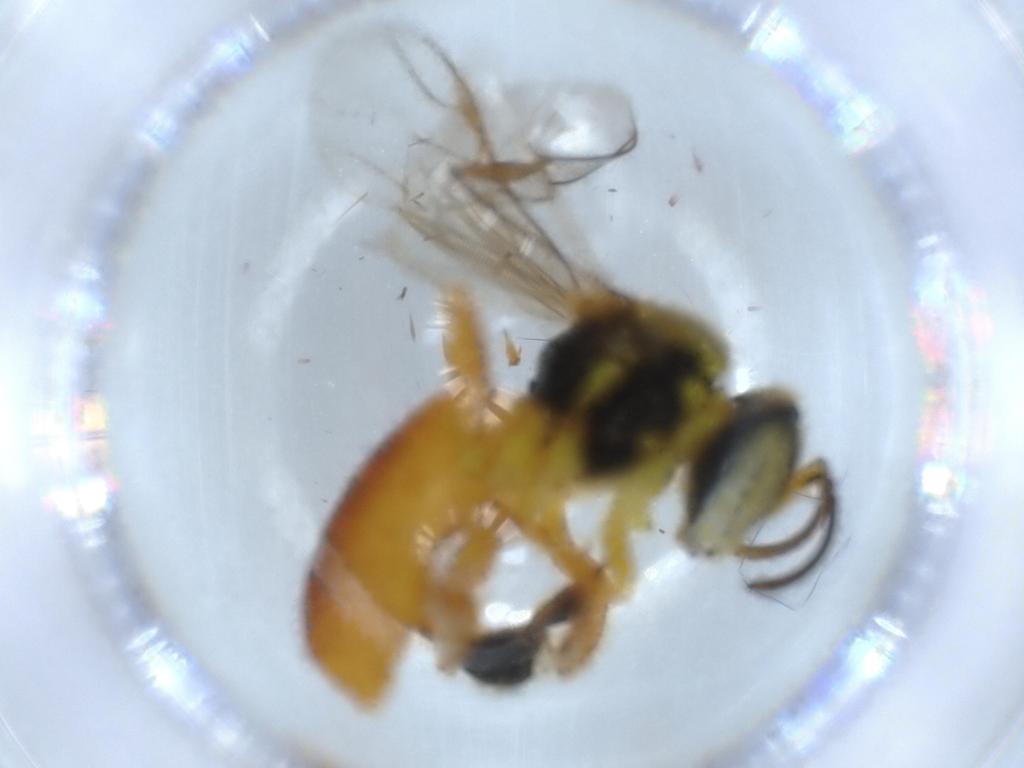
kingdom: Animalia
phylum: Arthropoda
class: Insecta
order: Hymenoptera
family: Apidae
